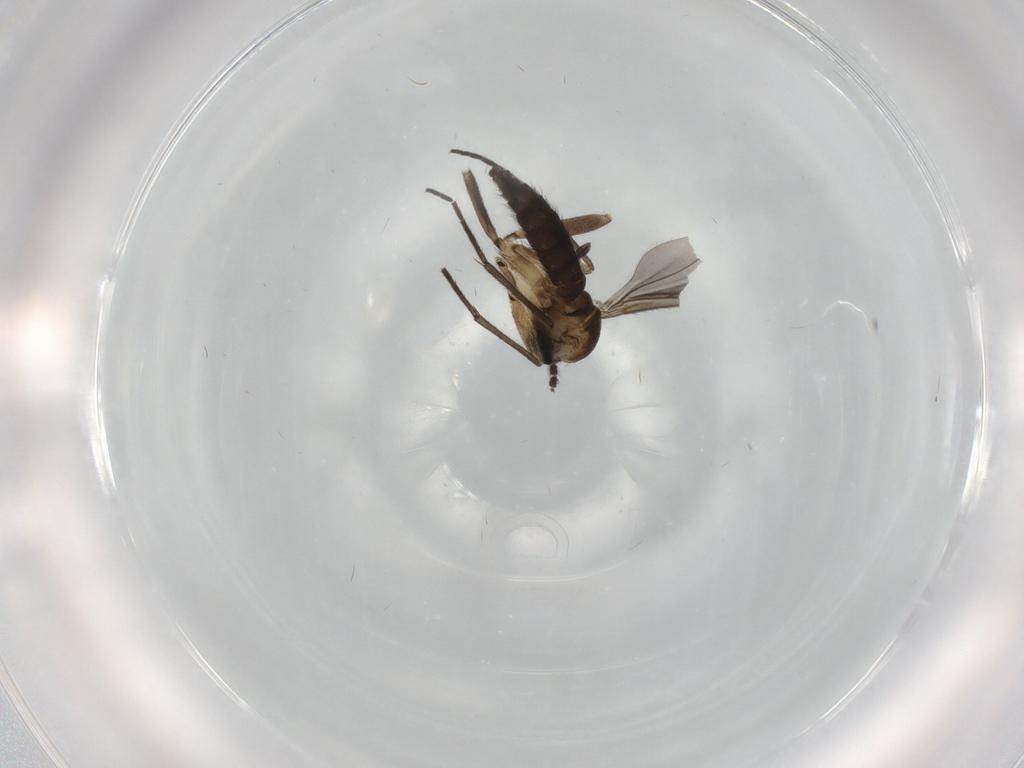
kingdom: Animalia
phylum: Arthropoda
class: Insecta
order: Diptera
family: Sciaridae
